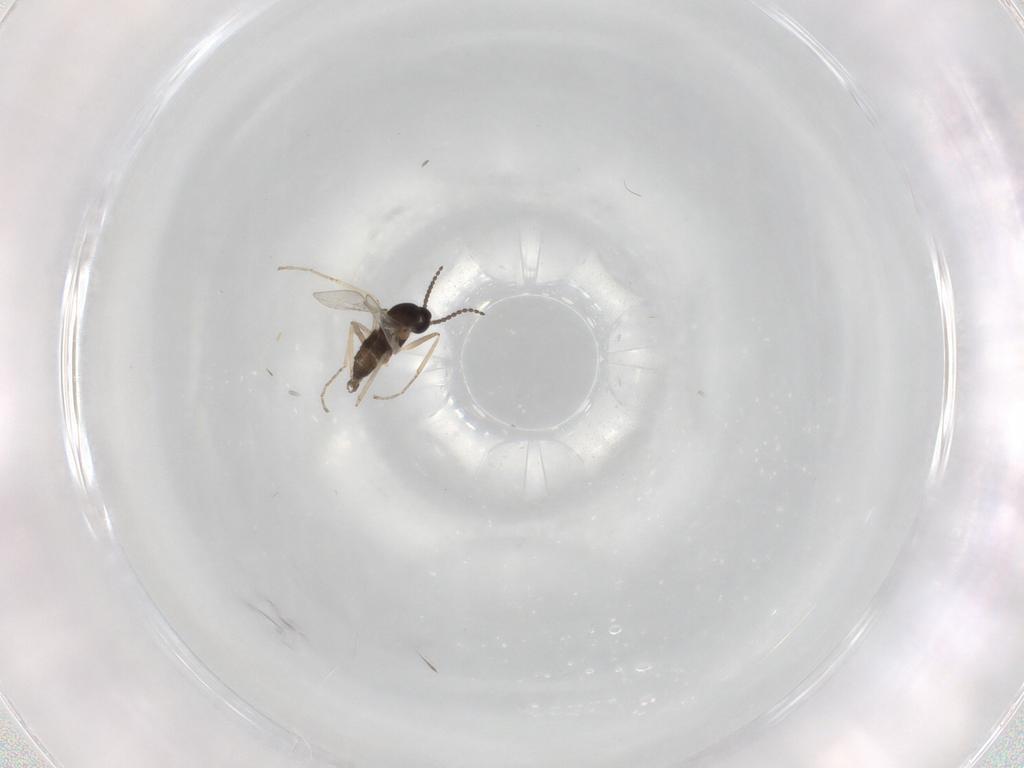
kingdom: Animalia
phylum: Arthropoda
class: Insecta
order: Diptera
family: Cecidomyiidae
